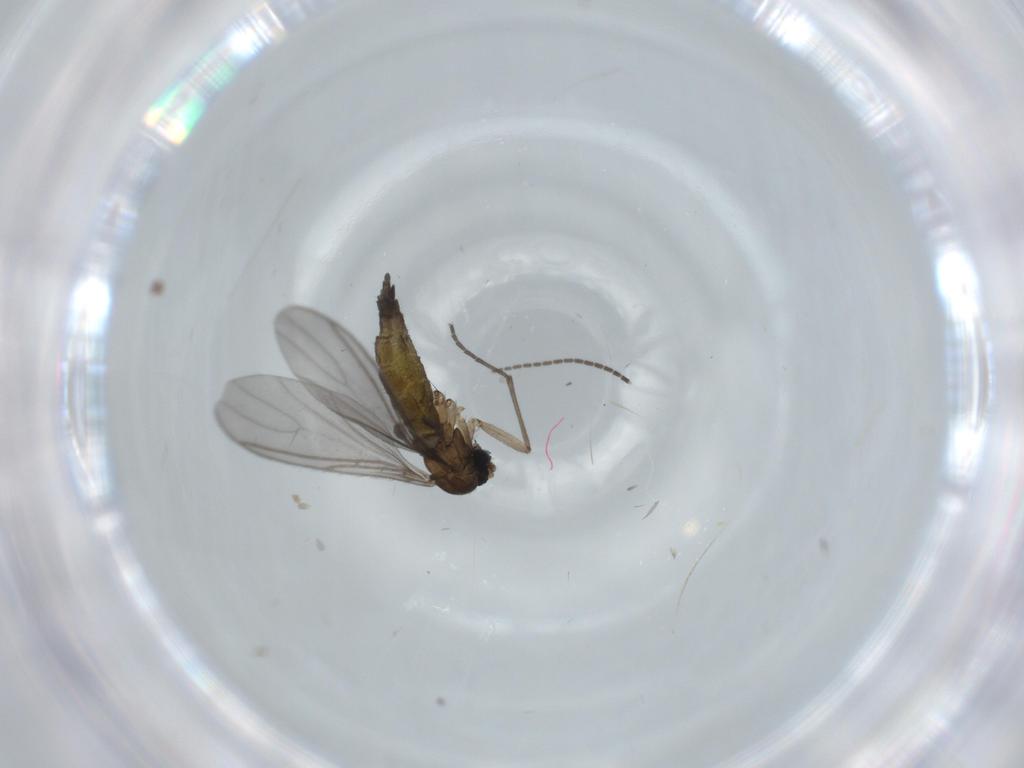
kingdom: Animalia
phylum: Arthropoda
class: Insecta
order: Diptera
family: Sciaridae
